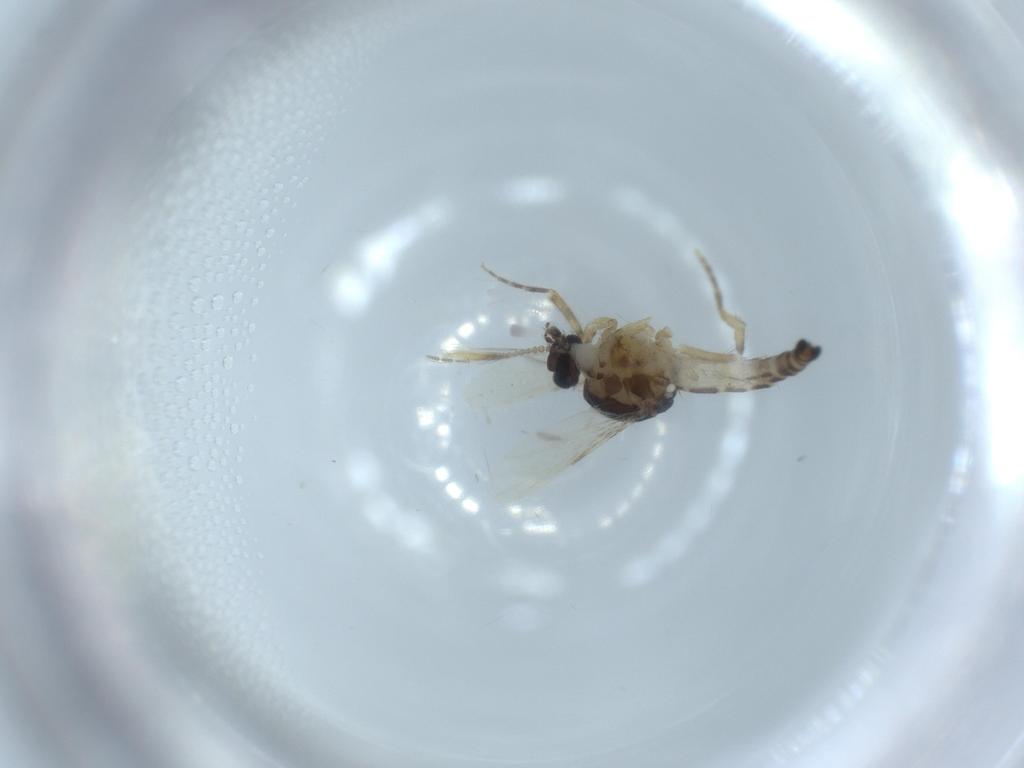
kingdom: Animalia
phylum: Arthropoda
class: Insecta
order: Diptera
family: Ceratopogonidae
